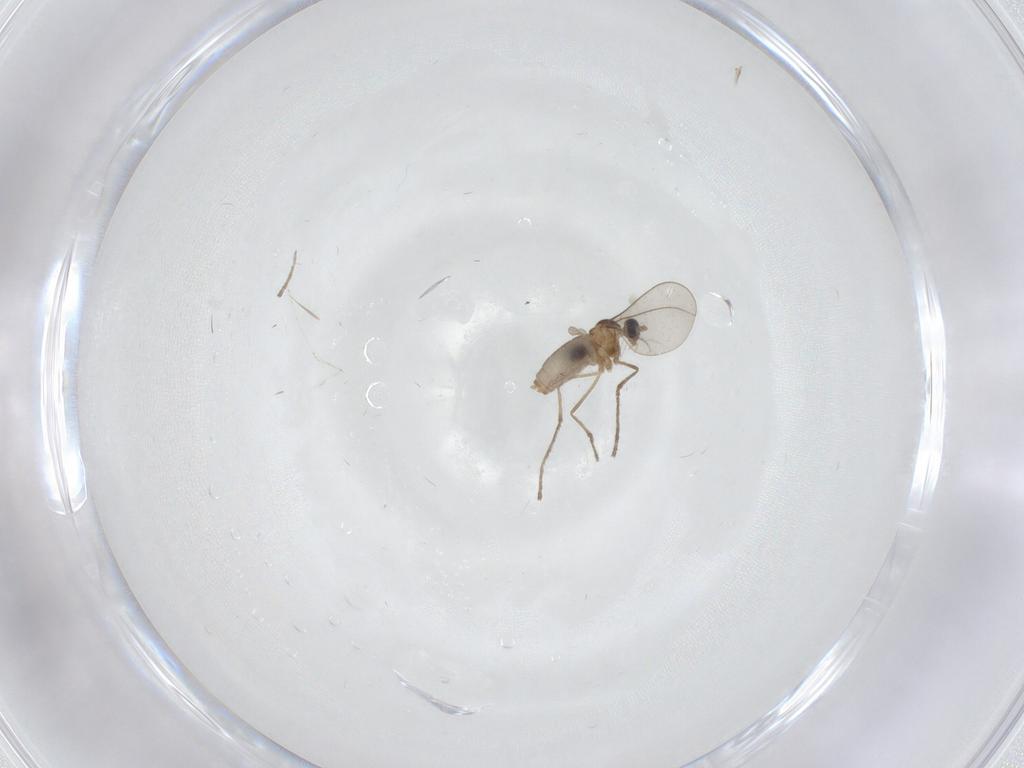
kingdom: Animalia
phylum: Arthropoda
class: Insecta
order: Diptera
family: Cecidomyiidae
